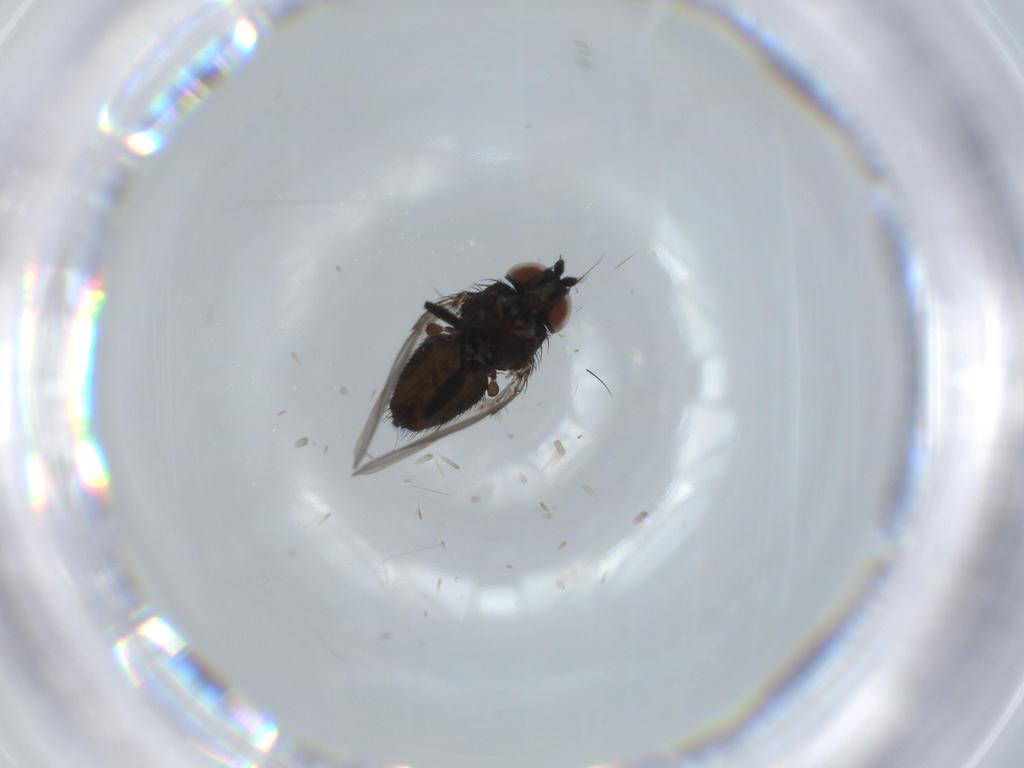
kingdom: Animalia
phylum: Arthropoda
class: Insecta
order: Diptera
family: Milichiidae
